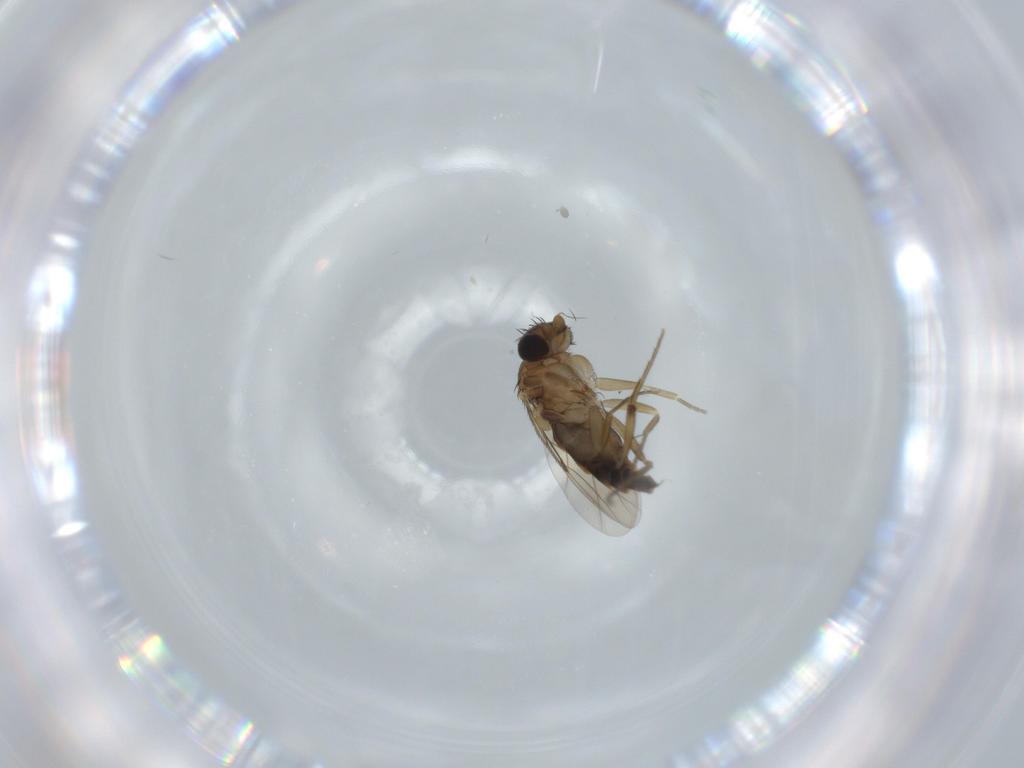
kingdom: Animalia
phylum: Arthropoda
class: Insecta
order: Diptera
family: Phoridae
